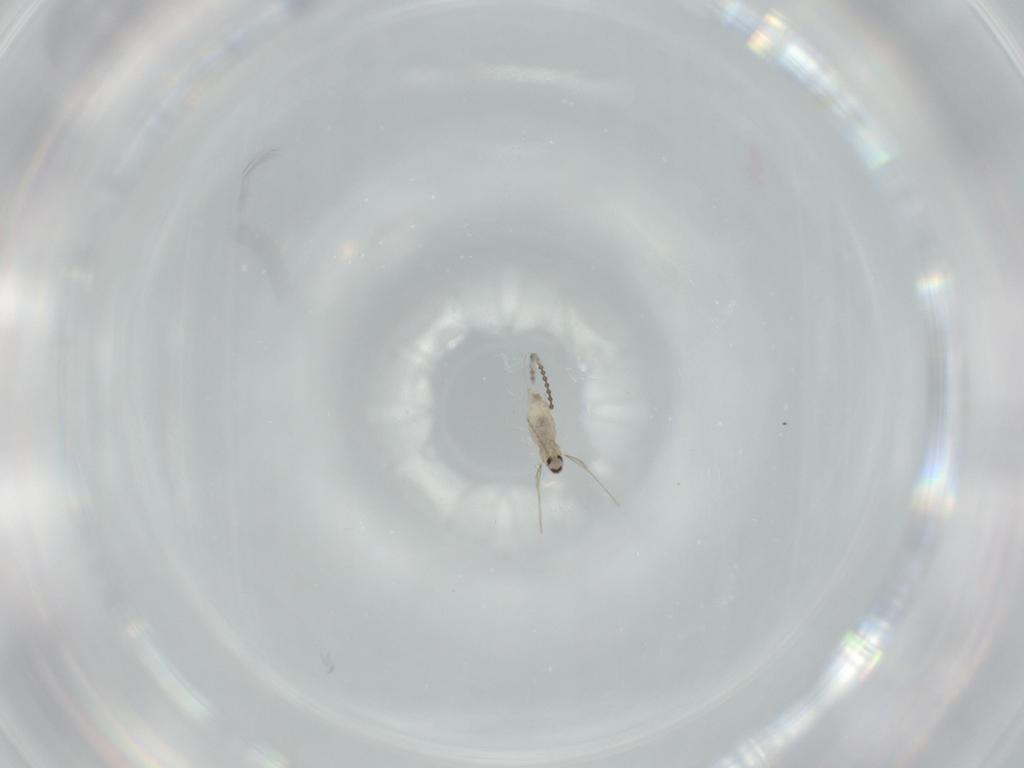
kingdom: Animalia
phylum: Arthropoda
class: Insecta
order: Diptera
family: Cecidomyiidae
